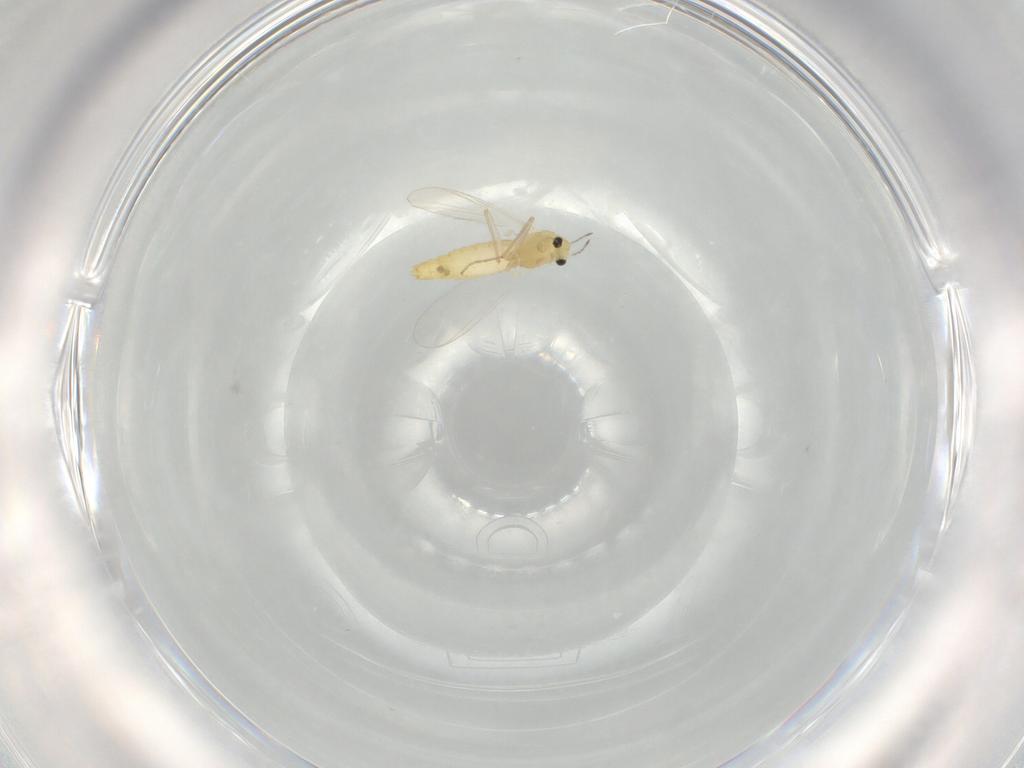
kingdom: Animalia
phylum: Arthropoda
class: Insecta
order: Diptera
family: Chironomidae
